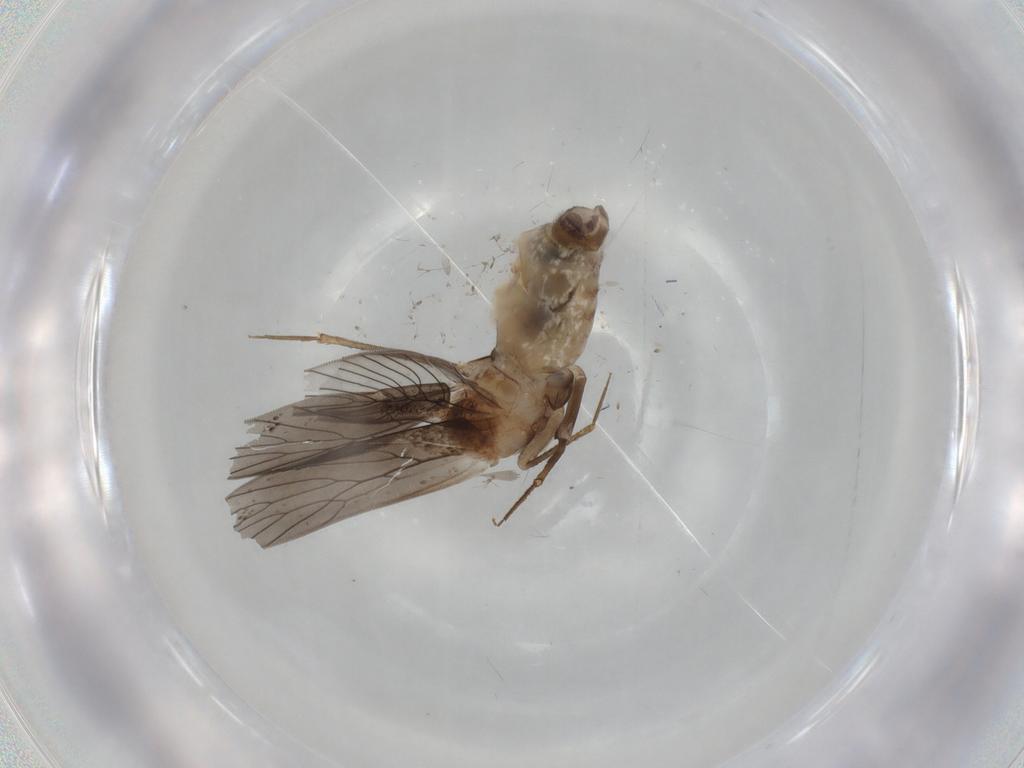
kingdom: Animalia
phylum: Arthropoda
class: Insecta
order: Psocodea
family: Lepidopsocidae
